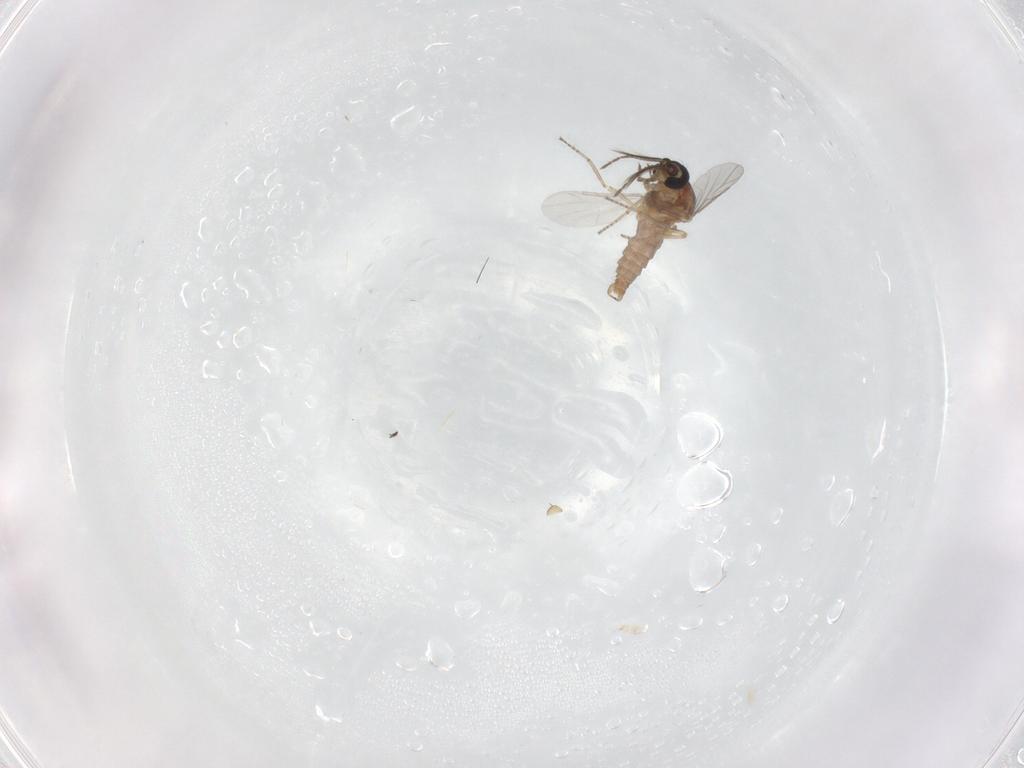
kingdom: Animalia
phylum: Arthropoda
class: Insecta
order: Diptera
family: Ceratopogonidae
